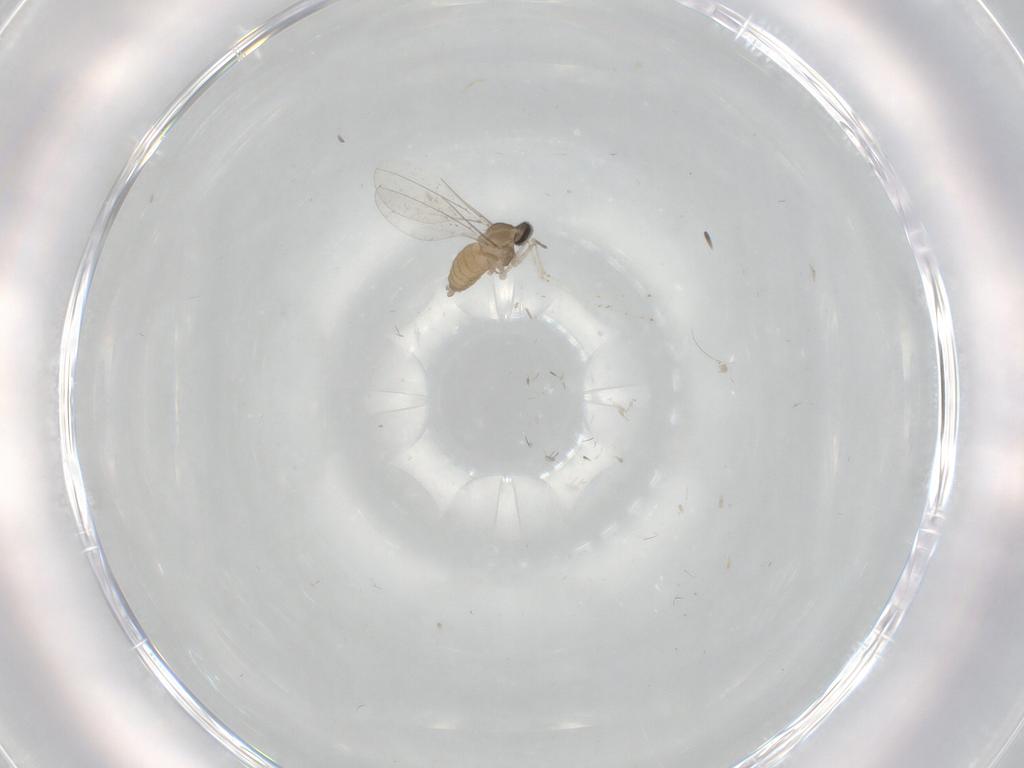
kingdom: Animalia
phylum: Arthropoda
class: Insecta
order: Diptera
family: Cecidomyiidae
